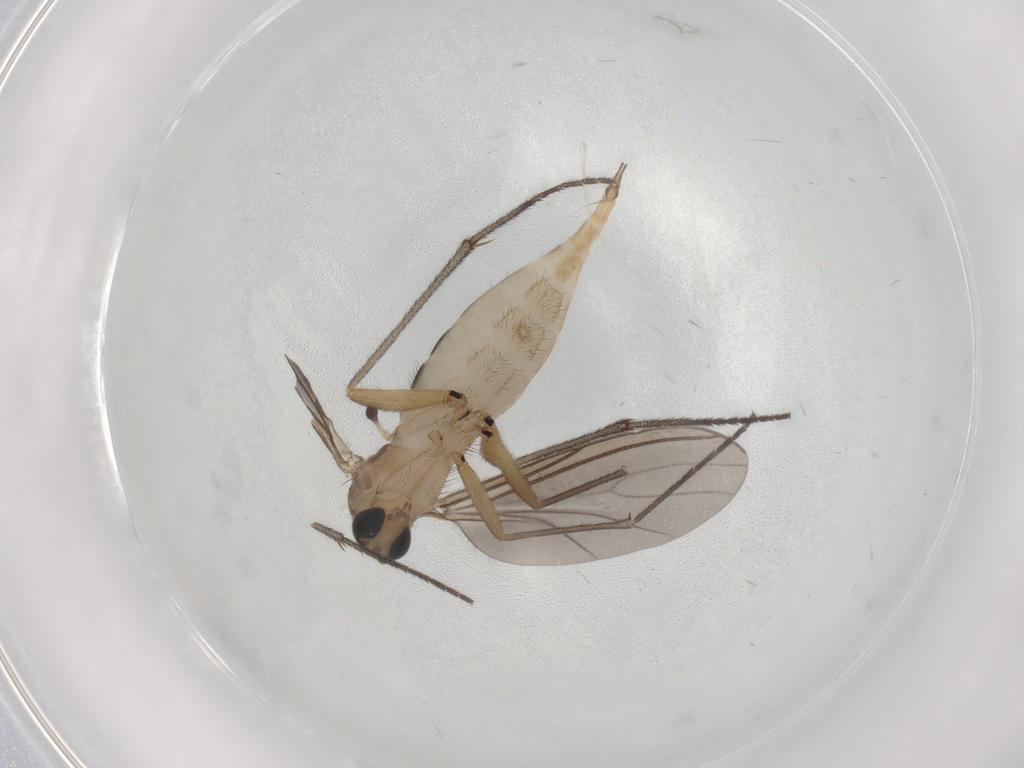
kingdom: Animalia
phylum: Arthropoda
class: Insecta
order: Diptera
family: Sciaridae
